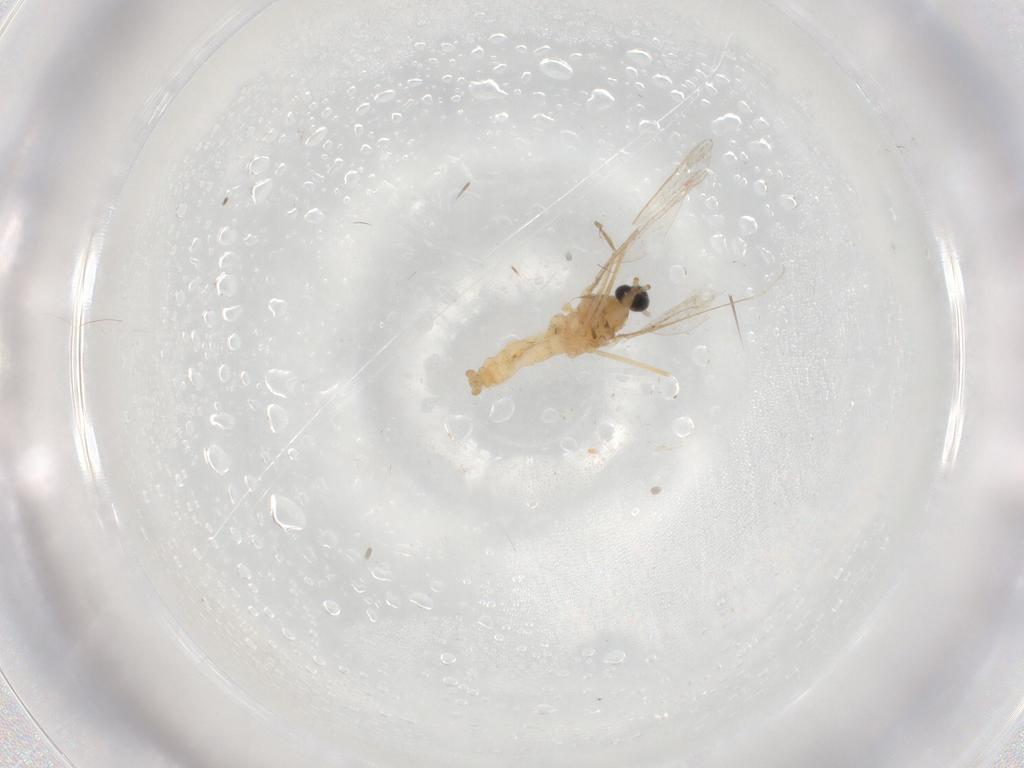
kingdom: Animalia
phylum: Arthropoda
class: Insecta
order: Diptera
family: Cecidomyiidae
